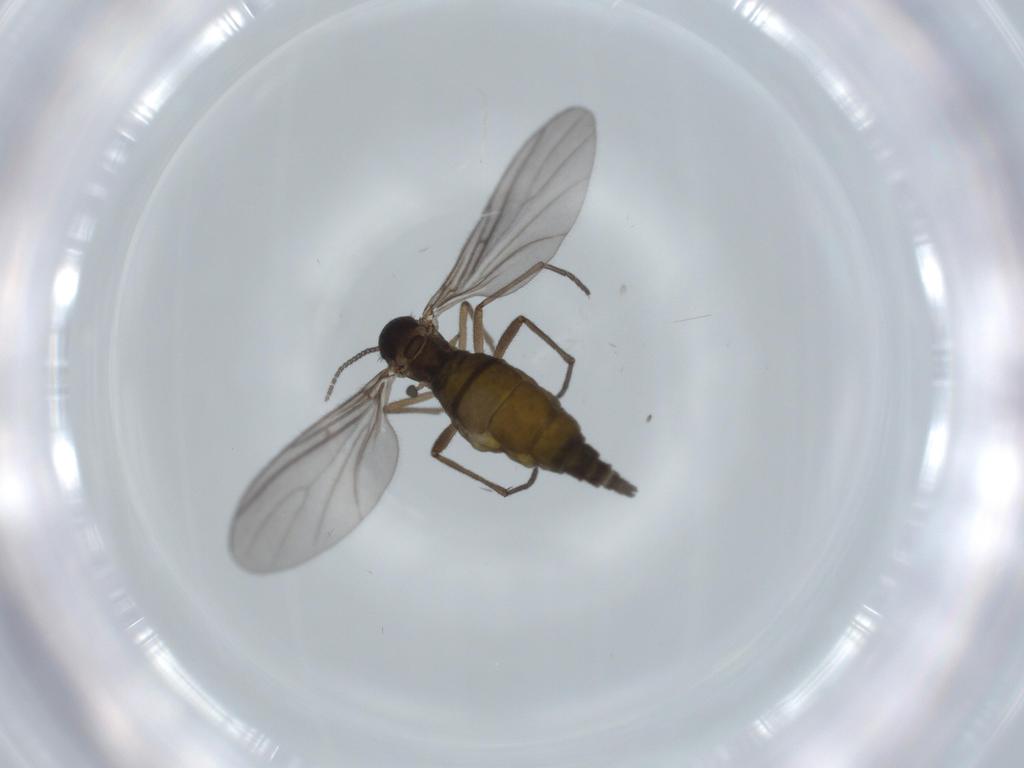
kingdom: Animalia
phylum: Arthropoda
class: Insecta
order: Diptera
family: Sciaridae
